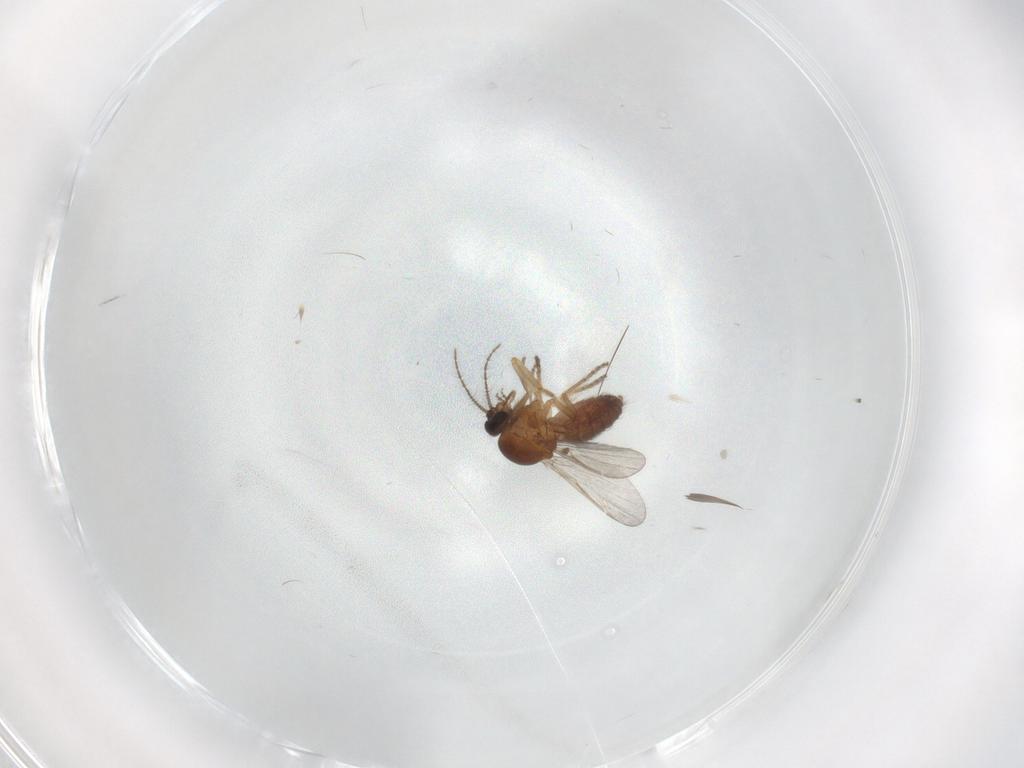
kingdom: Animalia
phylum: Arthropoda
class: Insecta
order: Diptera
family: Ceratopogonidae
